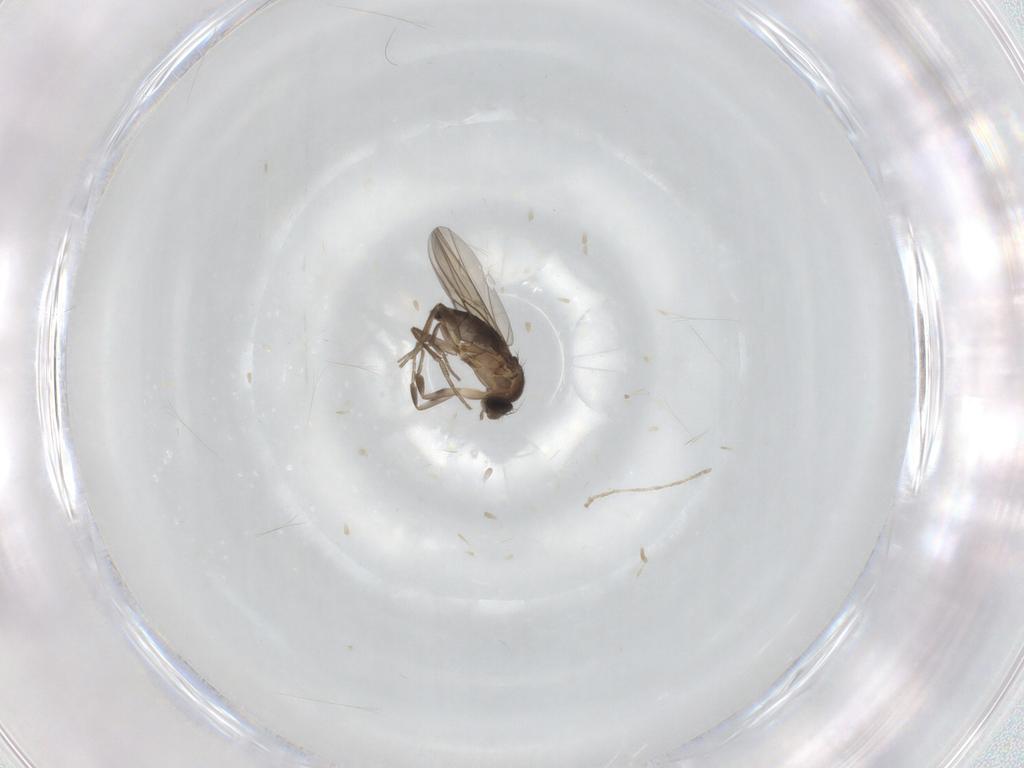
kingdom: Animalia
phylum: Arthropoda
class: Insecta
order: Diptera
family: Phoridae
